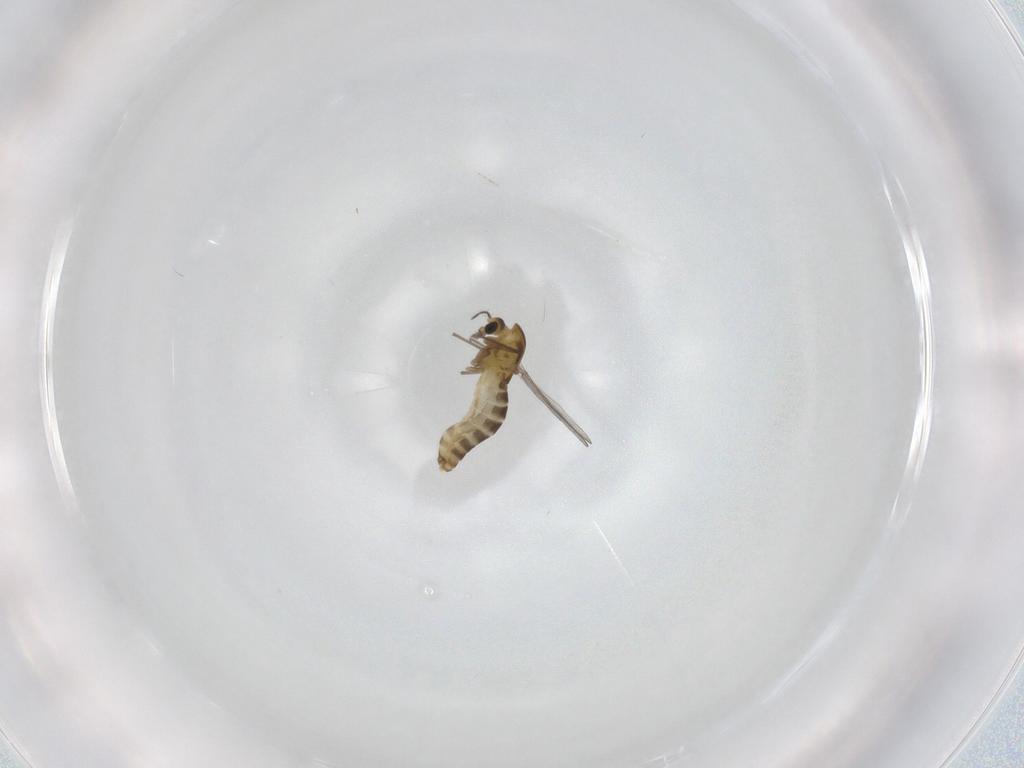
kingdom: Animalia
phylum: Arthropoda
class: Insecta
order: Diptera
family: Chironomidae
